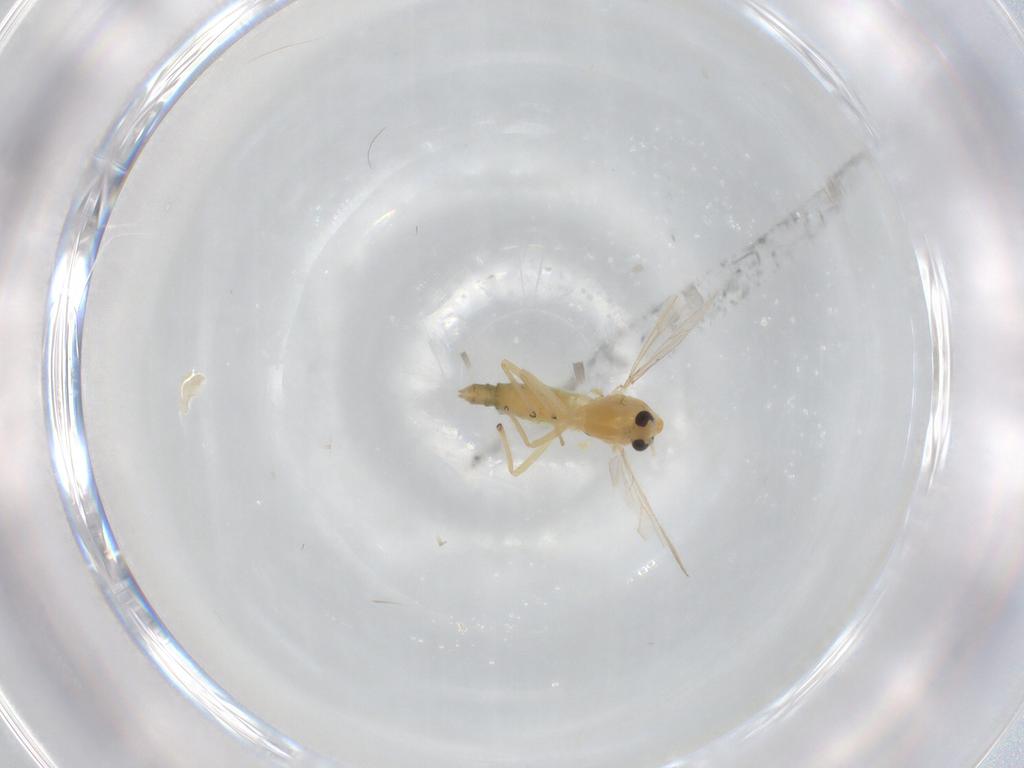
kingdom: Animalia
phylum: Arthropoda
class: Insecta
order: Diptera
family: Chironomidae
